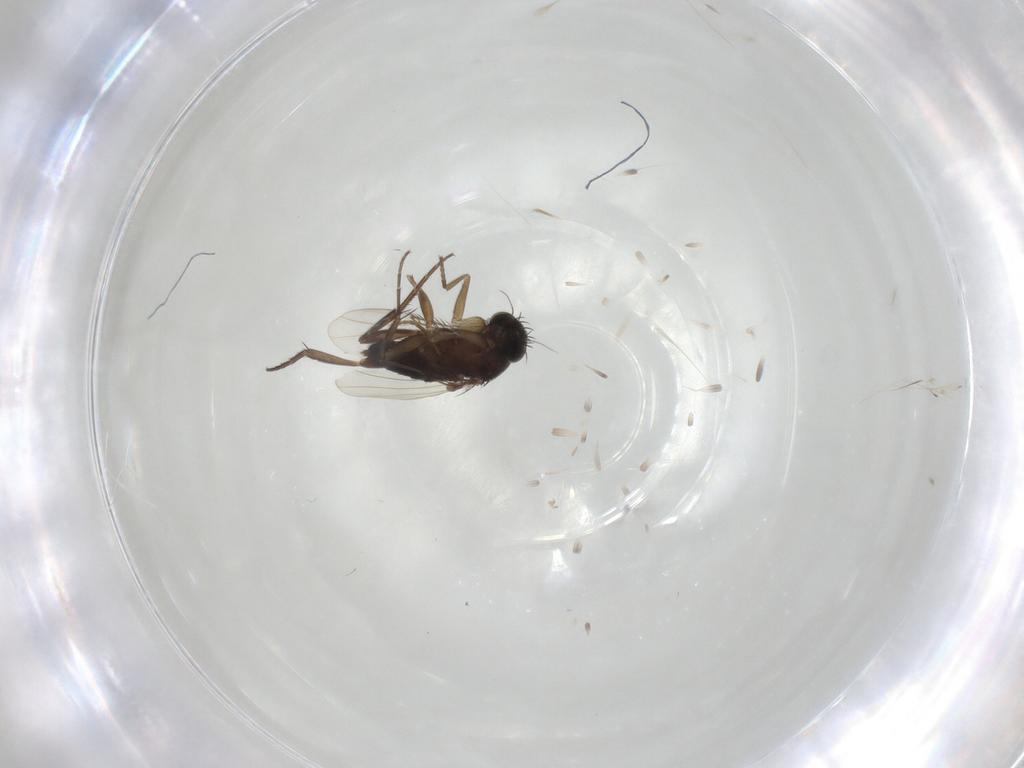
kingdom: Animalia
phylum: Arthropoda
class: Insecta
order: Diptera
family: Phoridae
